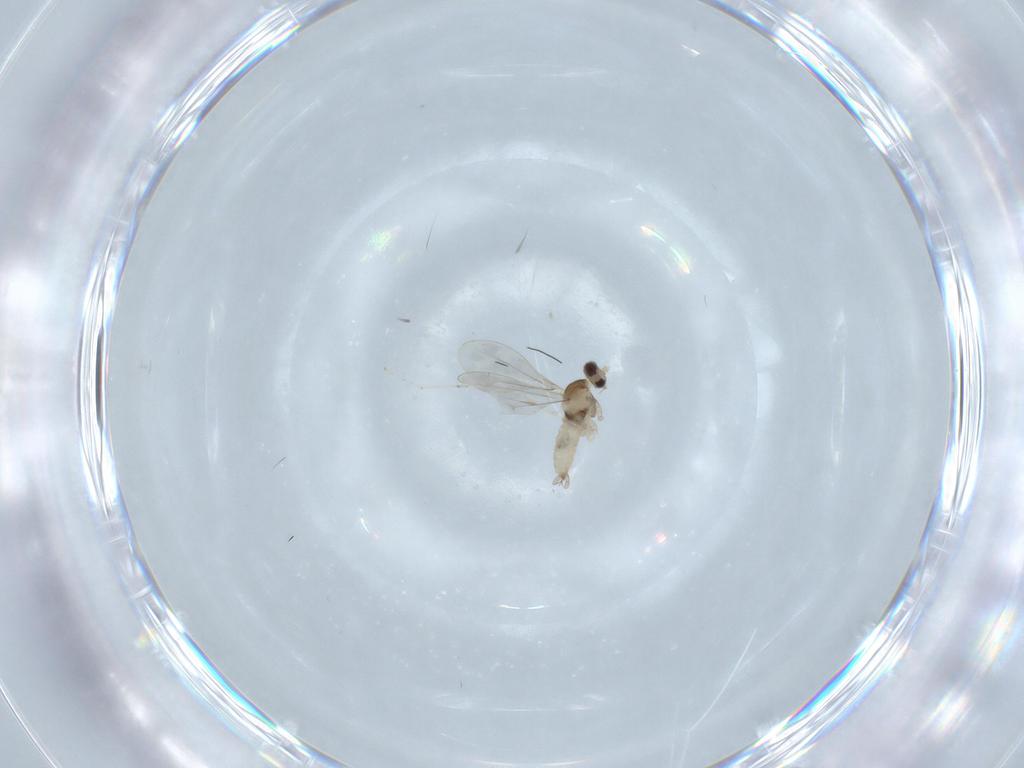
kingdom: Animalia
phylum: Arthropoda
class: Insecta
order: Diptera
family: Cecidomyiidae
